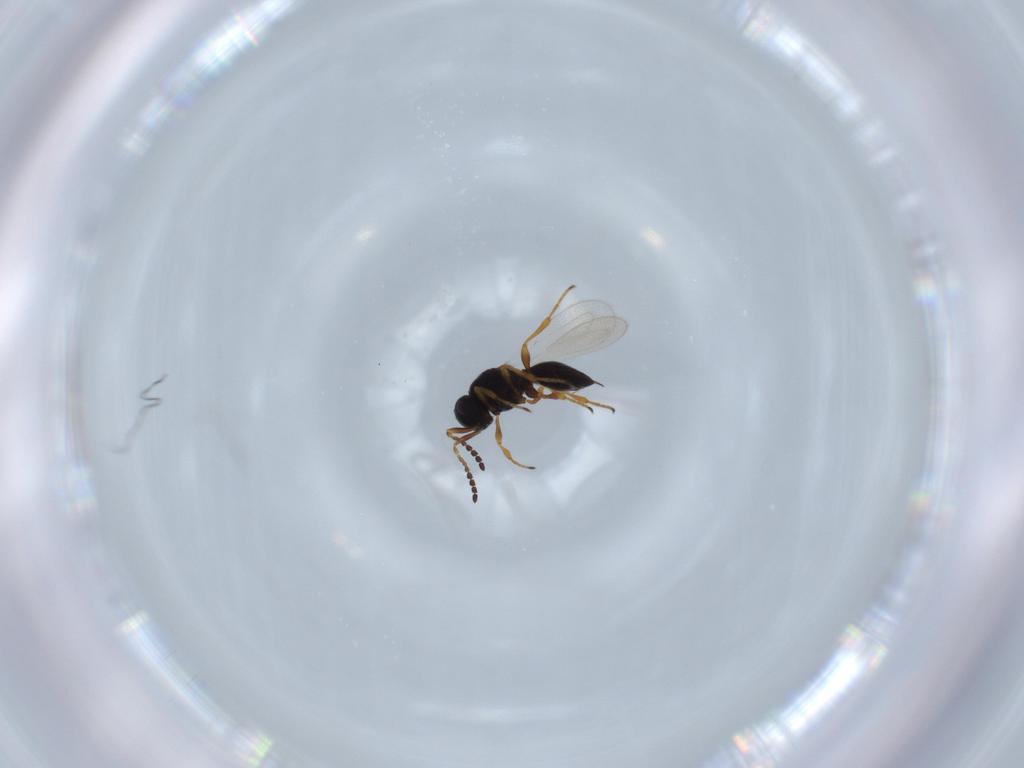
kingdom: Animalia
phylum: Arthropoda
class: Insecta
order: Hymenoptera
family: Platygastridae
